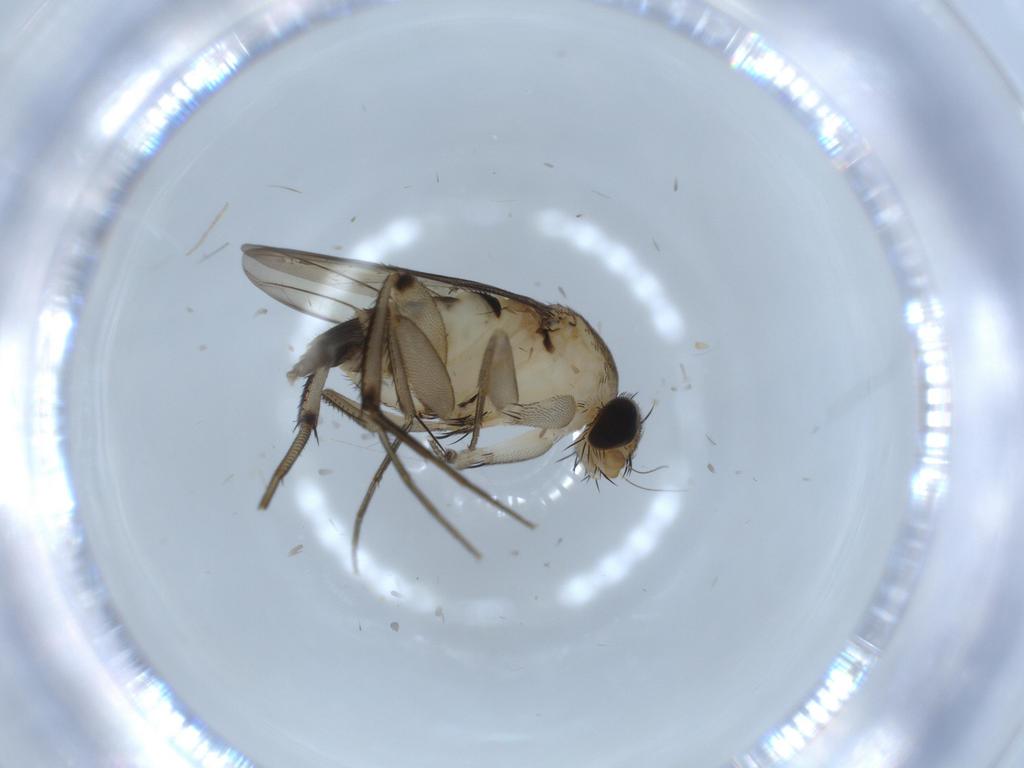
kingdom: Animalia
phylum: Arthropoda
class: Insecta
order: Diptera
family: Phoridae
